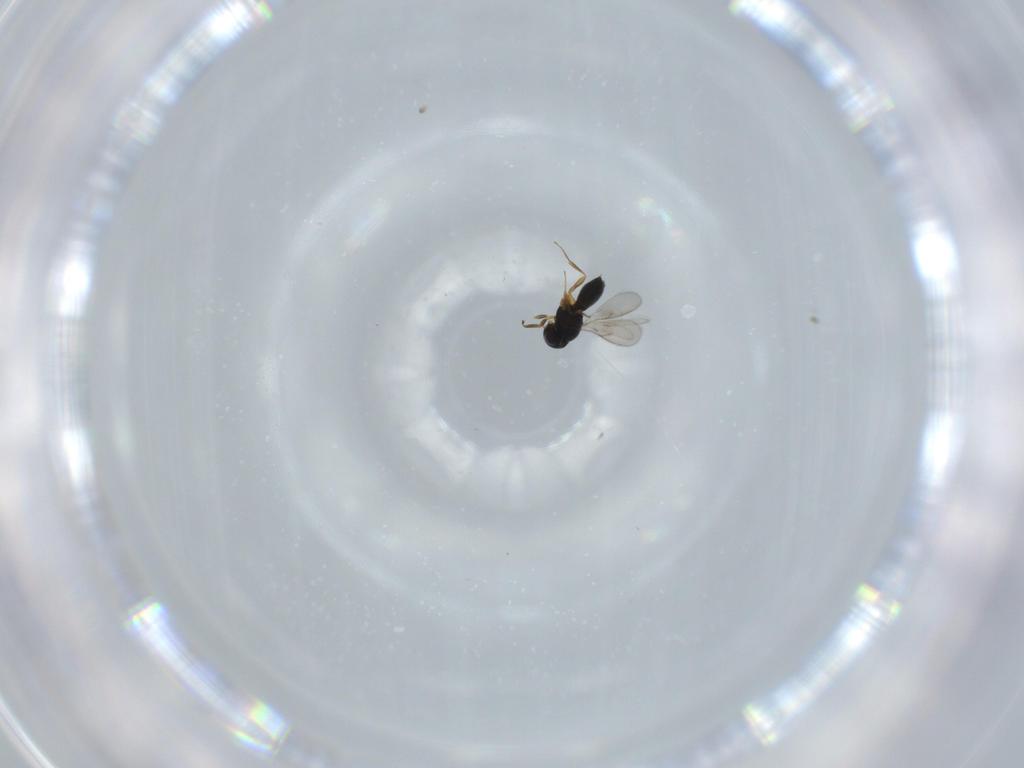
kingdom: Animalia
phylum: Arthropoda
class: Insecta
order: Hymenoptera
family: Scelionidae
